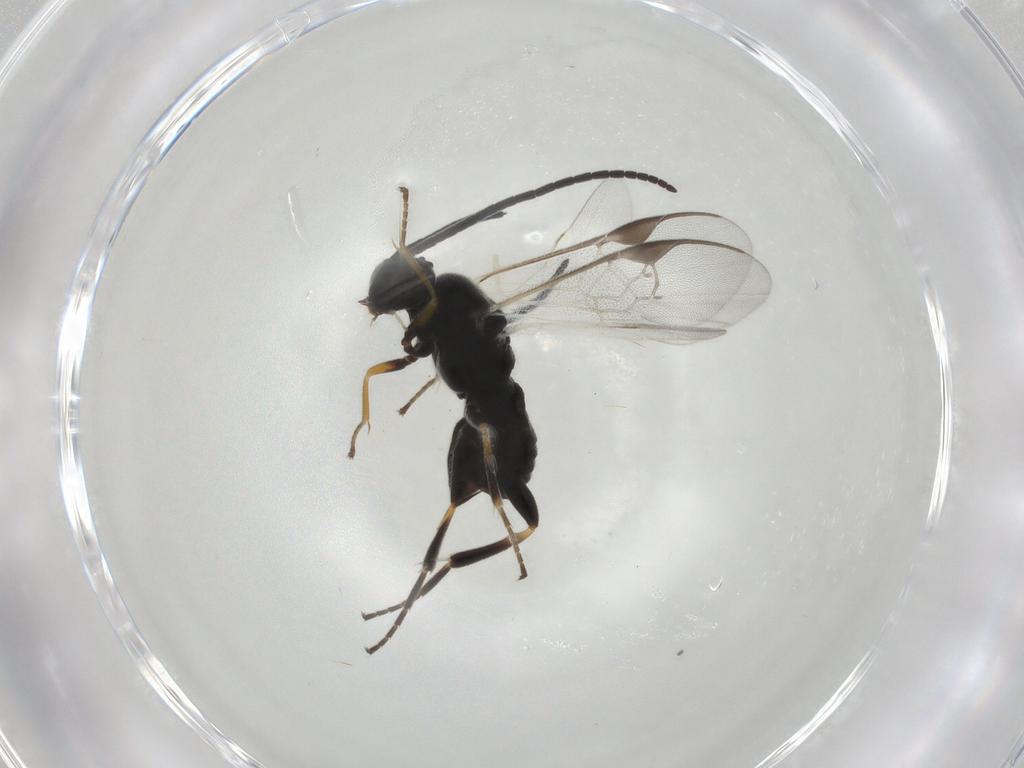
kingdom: Animalia
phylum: Arthropoda
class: Insecta
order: Hymenoptera
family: Braconidae
